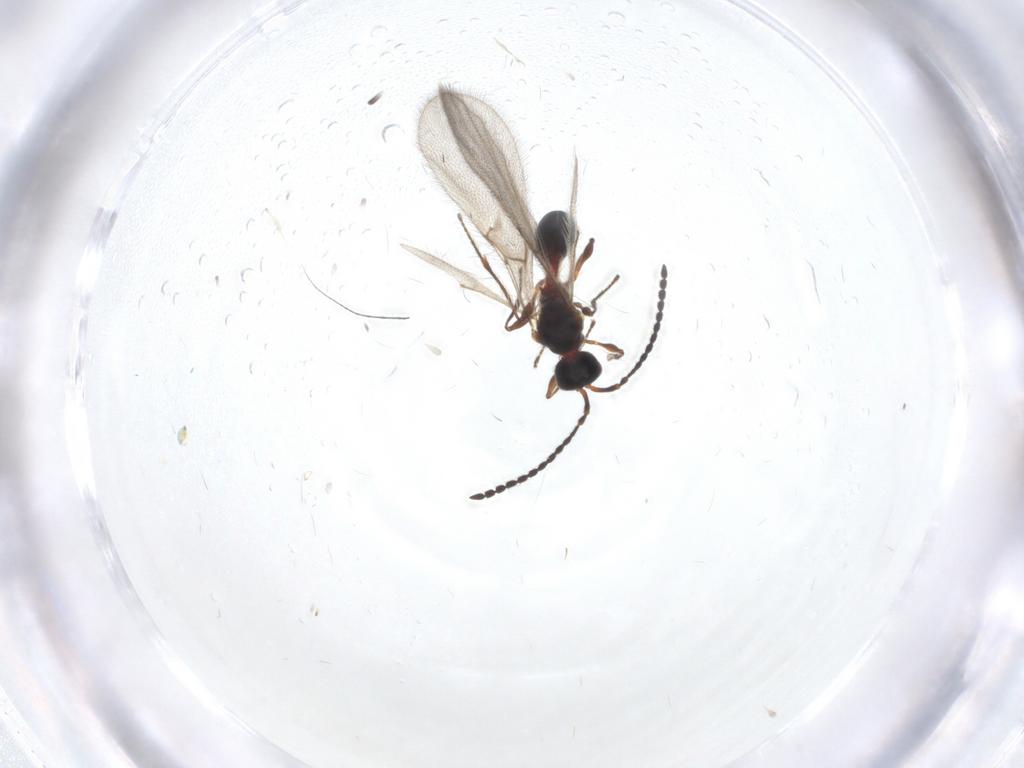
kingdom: Animalia
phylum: Arthropoda
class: Insecta
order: Hymenoptera
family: Diapriidae
